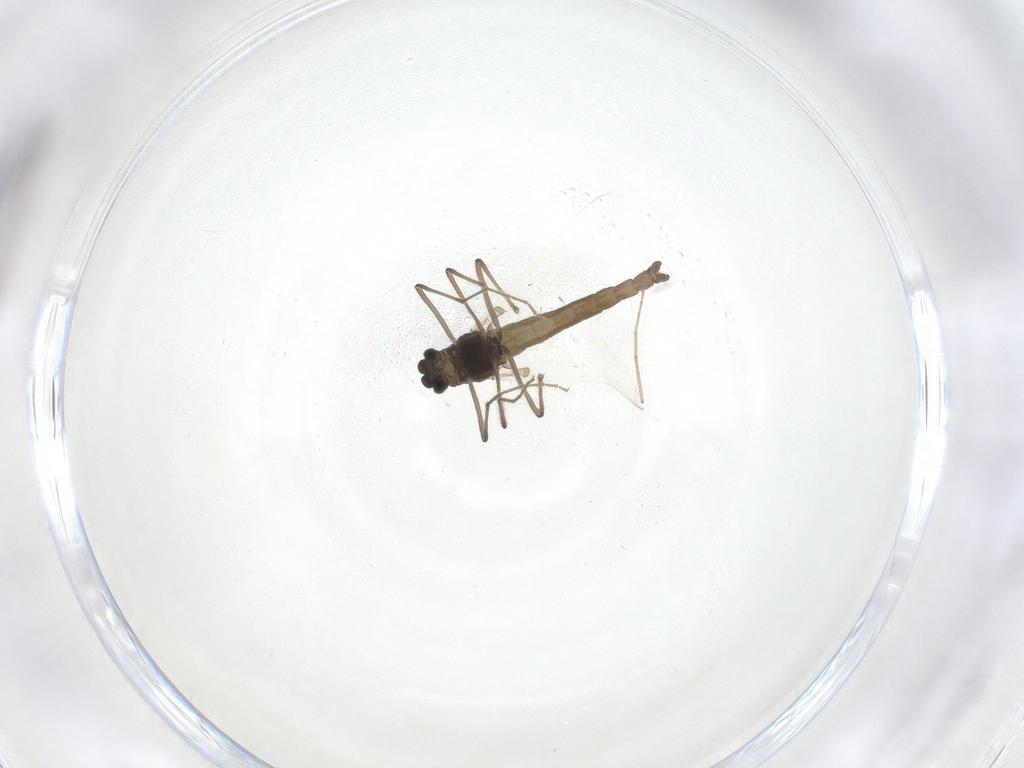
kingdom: Animalia
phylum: Arthropoda
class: Insecta
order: Diptera
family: Chironomidae
